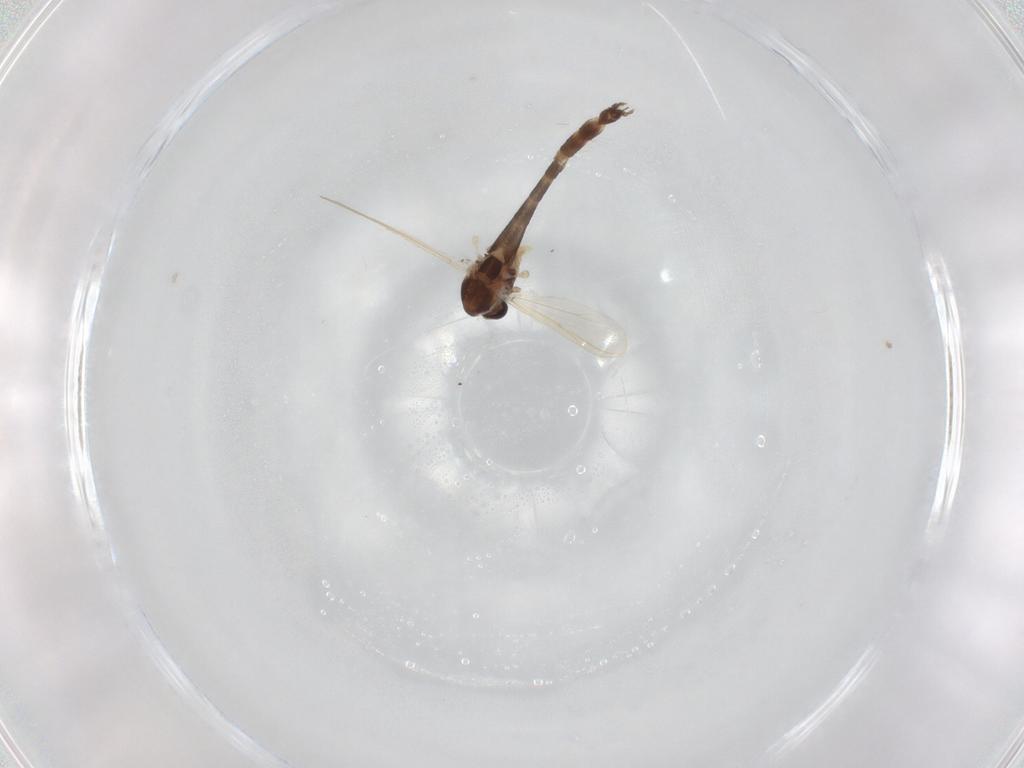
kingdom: Animalia
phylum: Arthropoda
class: Insecta
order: Diptera
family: Chironomidae
